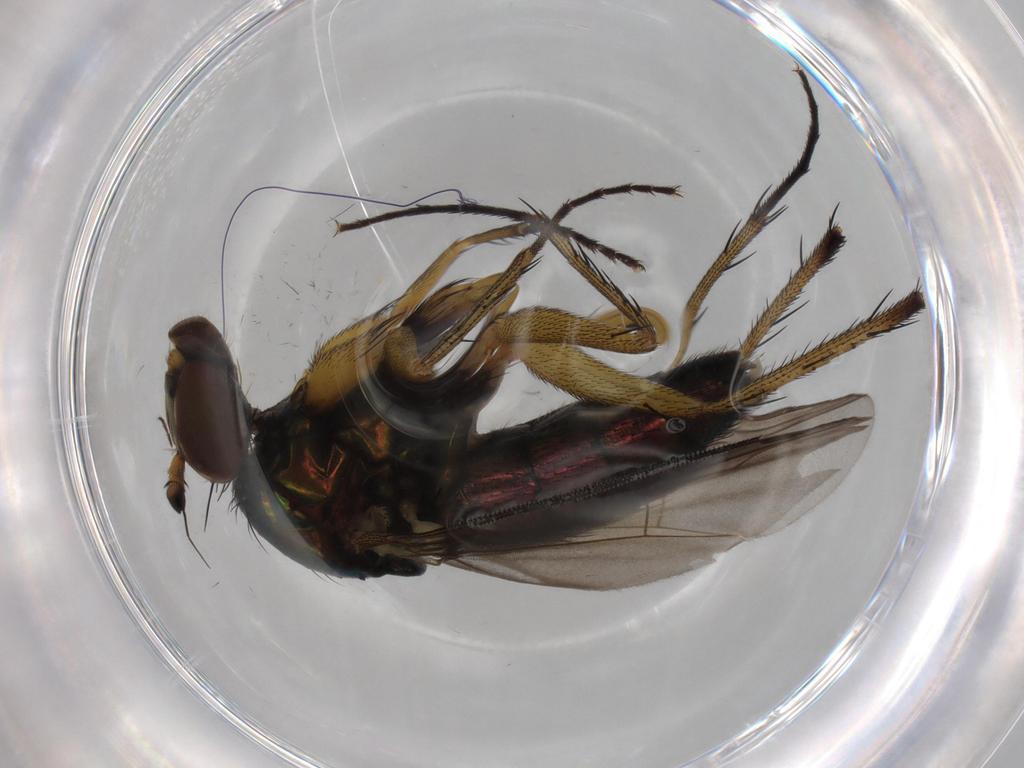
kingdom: Animalia
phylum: Arthropoda
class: Insecta
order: Diptera
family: Dolichopodidae
